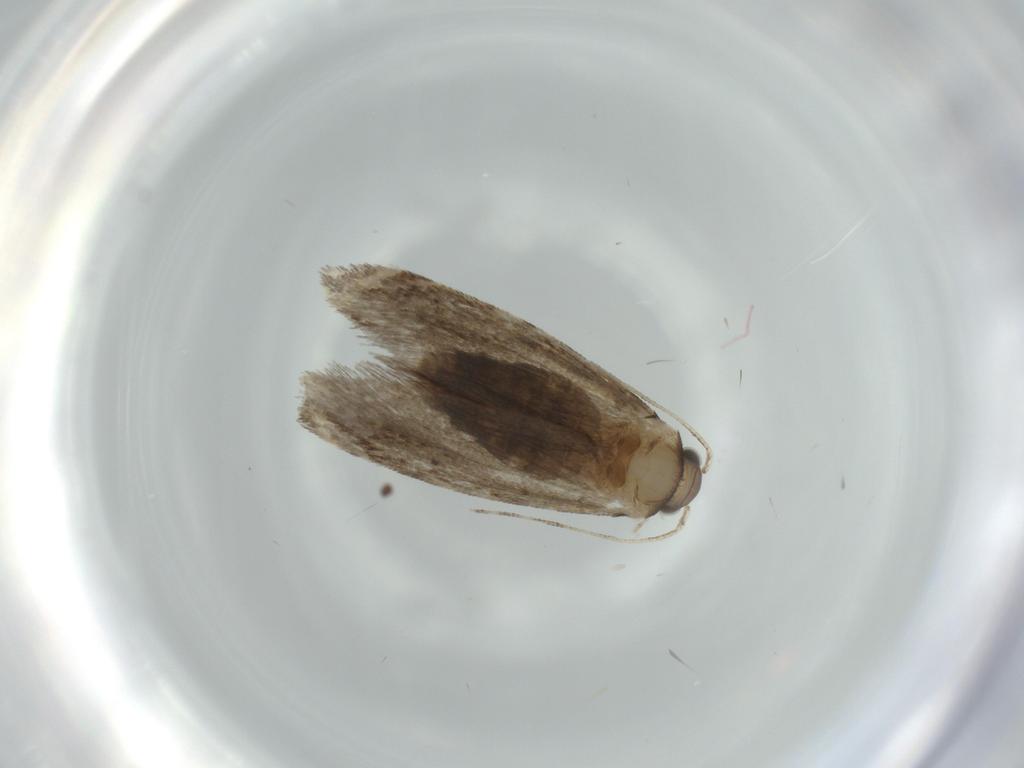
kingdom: Animalia
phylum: Arthropoda
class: Insecta
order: Lepidoptera
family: Tineidae
